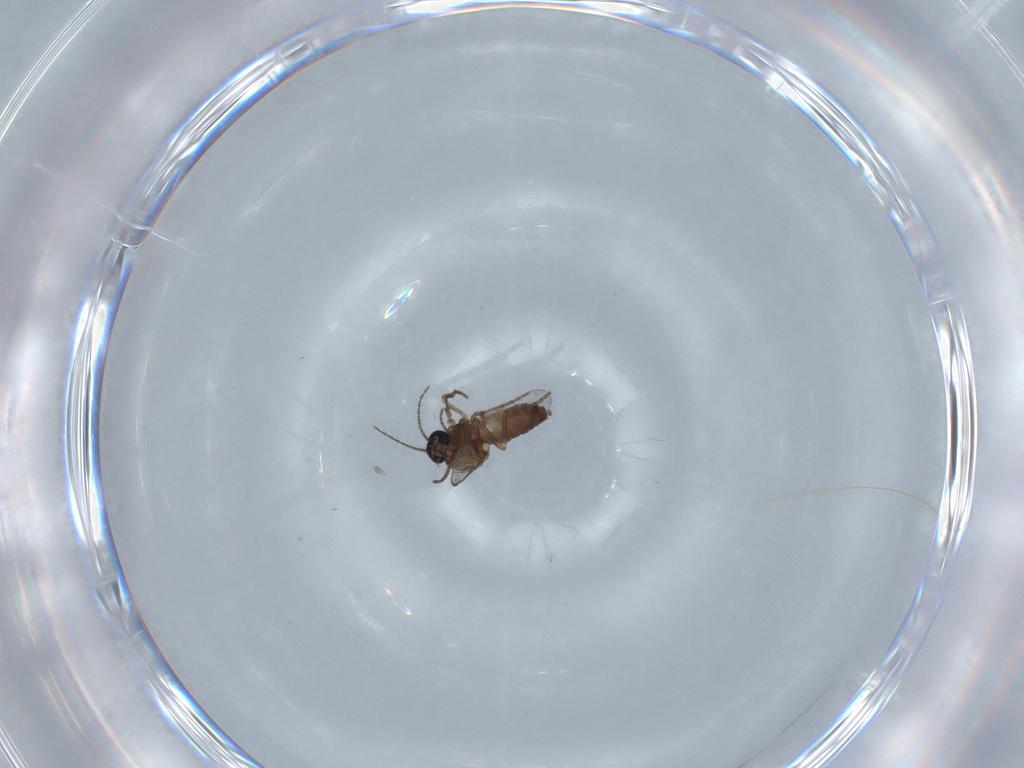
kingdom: Animalia
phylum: Arthropoda
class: Insecta
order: Diptera
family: Ceratopogonidae
